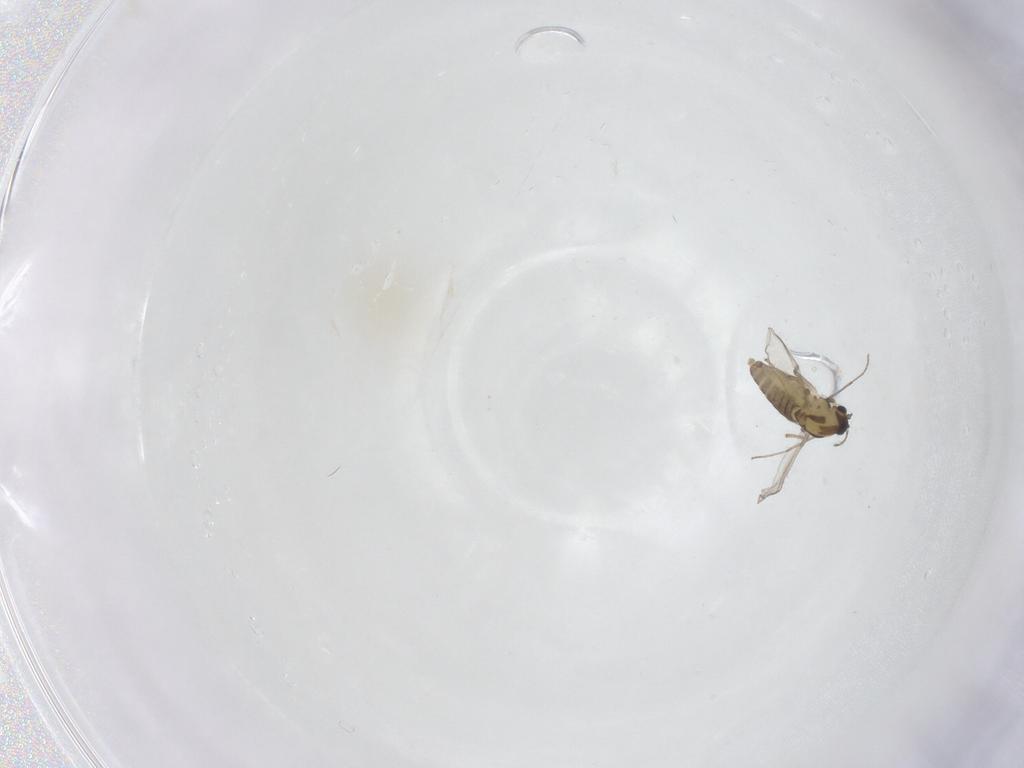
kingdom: Animalia
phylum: Arthropoda
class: Insecta
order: Diptera
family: Chironomidae
